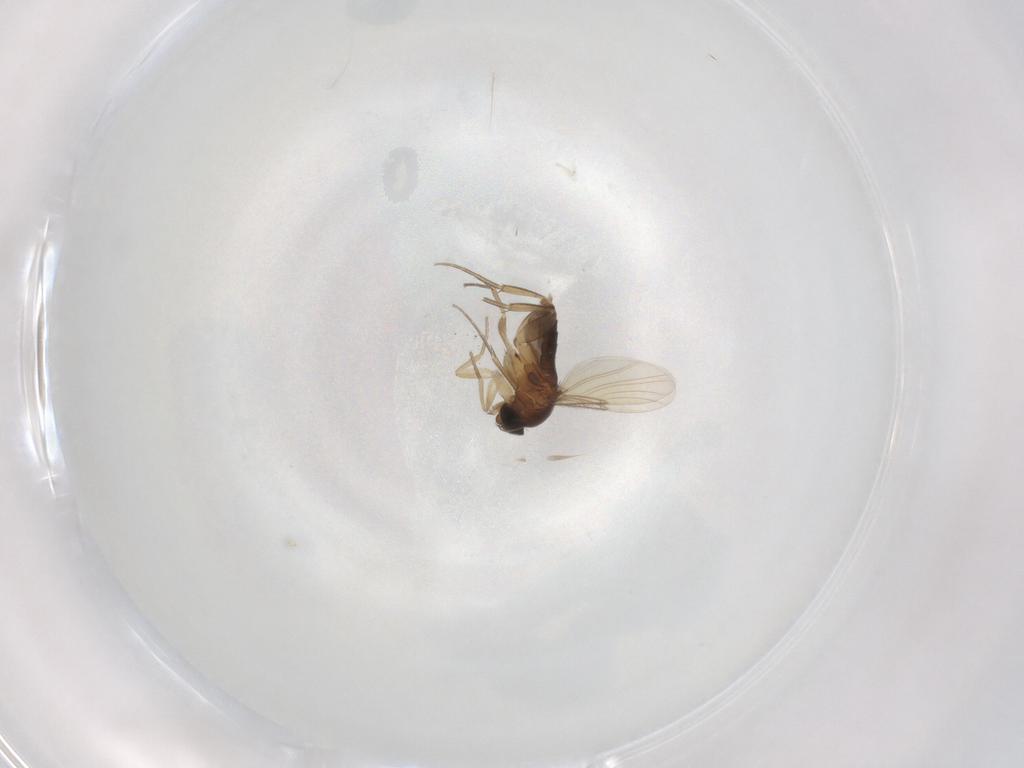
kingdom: Animalia
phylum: Arthropoda
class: Insecta
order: Diptera
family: Phoridae
